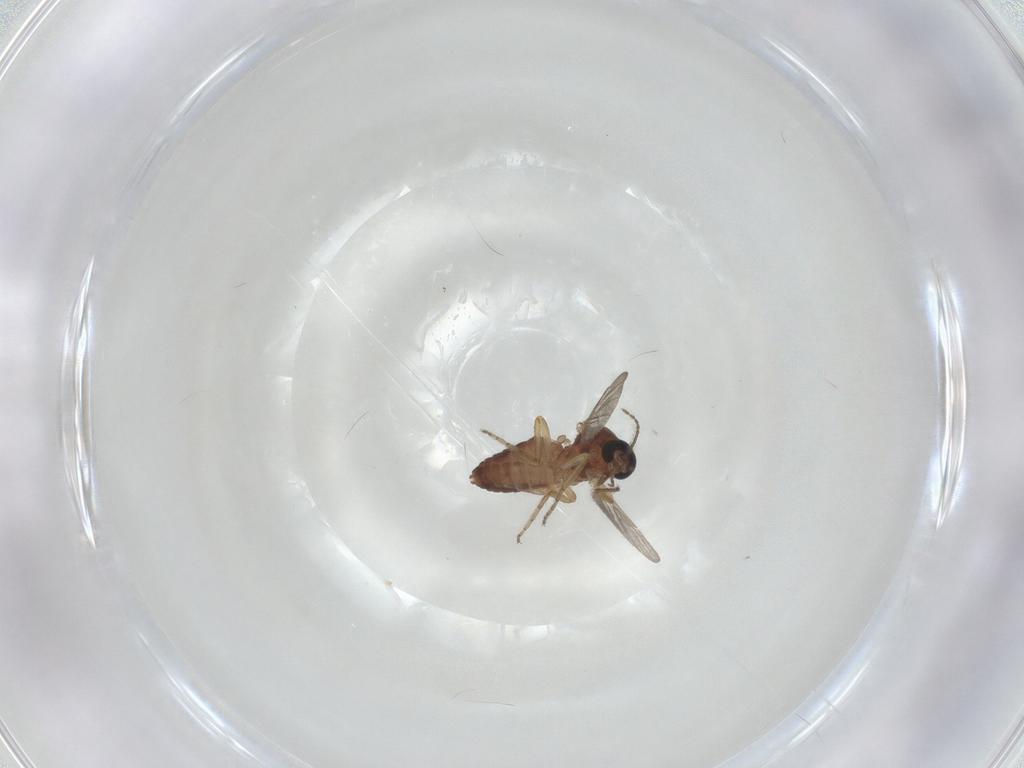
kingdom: Animalia
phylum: Arthropoda
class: Insecta
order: Diptera
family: Ceratopogonidae
